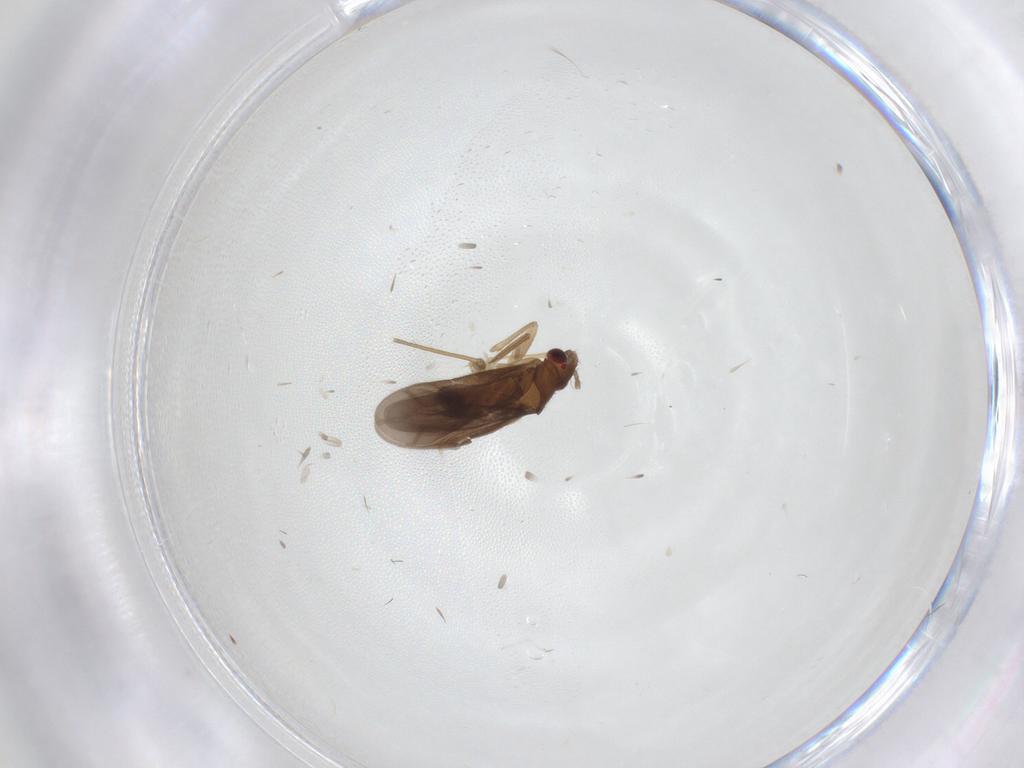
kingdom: Animalia
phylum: Arthropoda
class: Insecta
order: Hemiptera
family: Ceratocombidae
